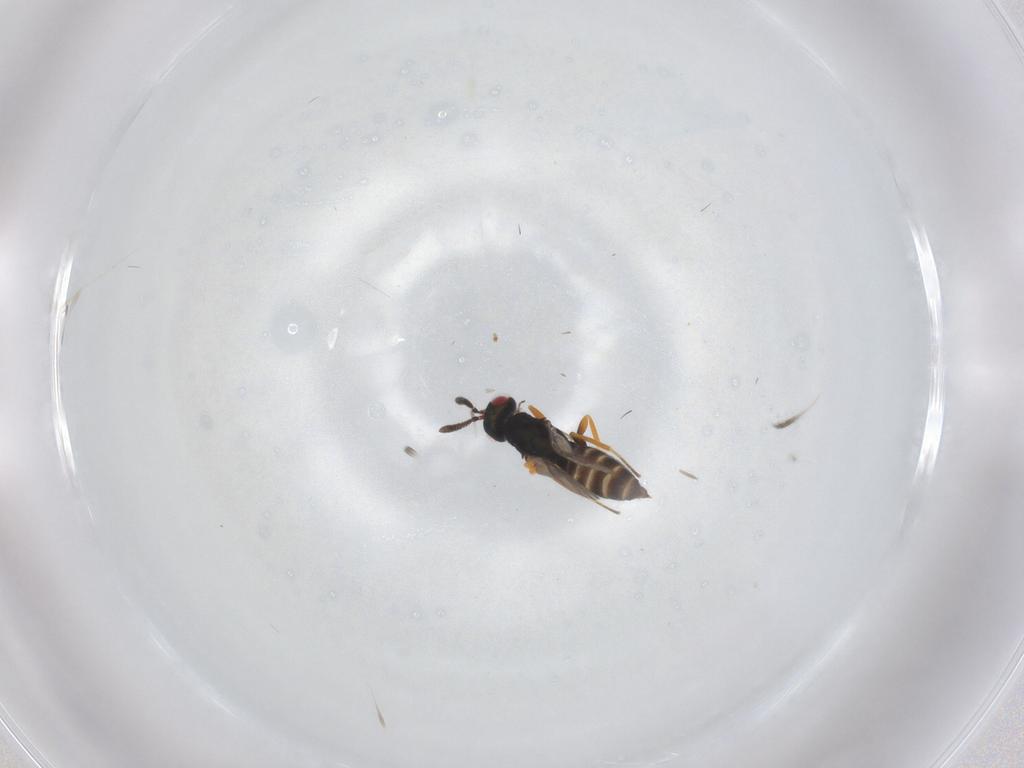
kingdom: Animalia
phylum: Arthropoda
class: Insecta
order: Hymenoptera
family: Torymidae
